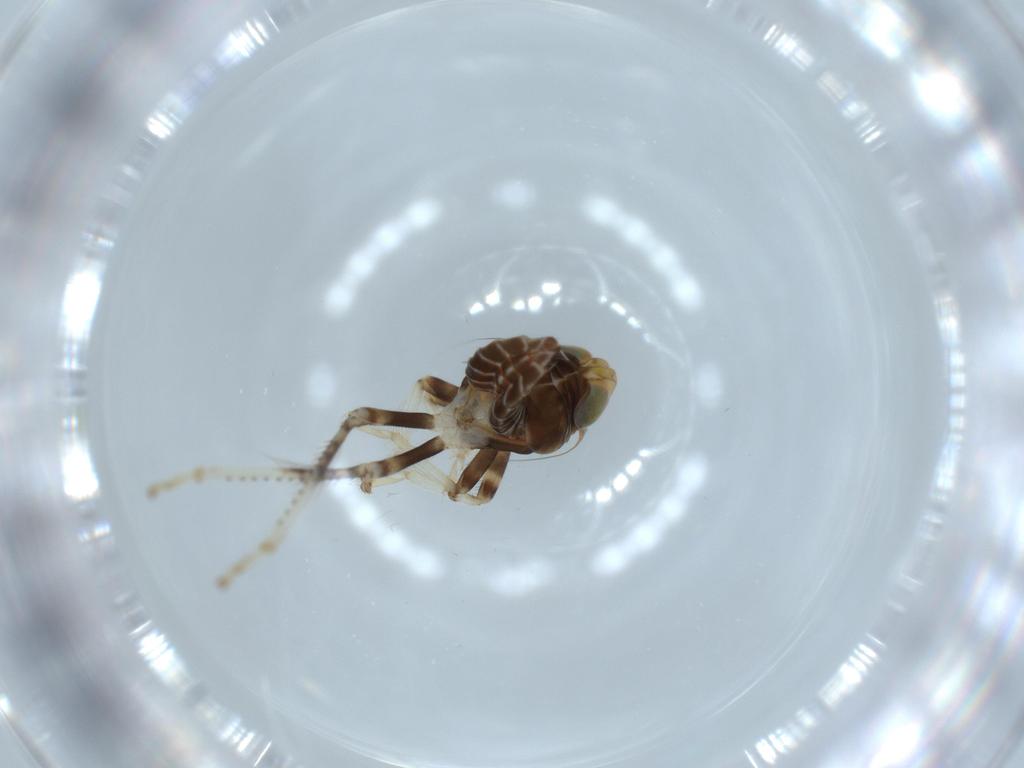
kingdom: Animalia
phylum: Arthropoda
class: Insecta
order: Hemiptera
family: Cicadellidae
